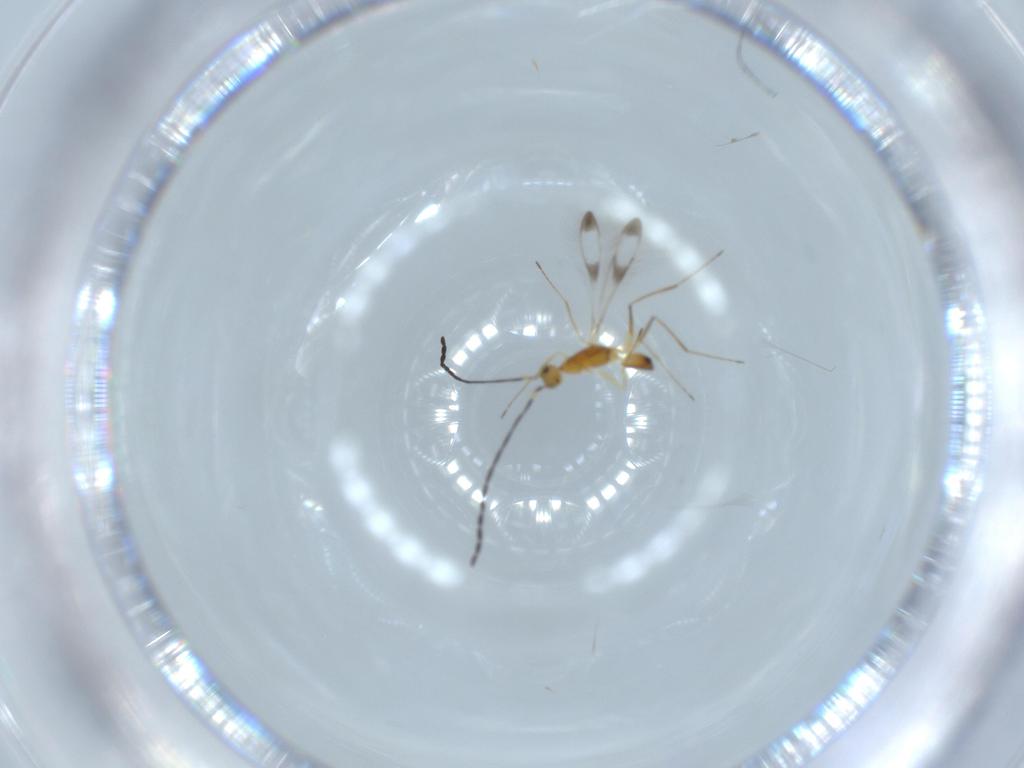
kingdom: Animalia
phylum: Arthropoda
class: Insecta
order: Hymenoptera
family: Mymaridae
